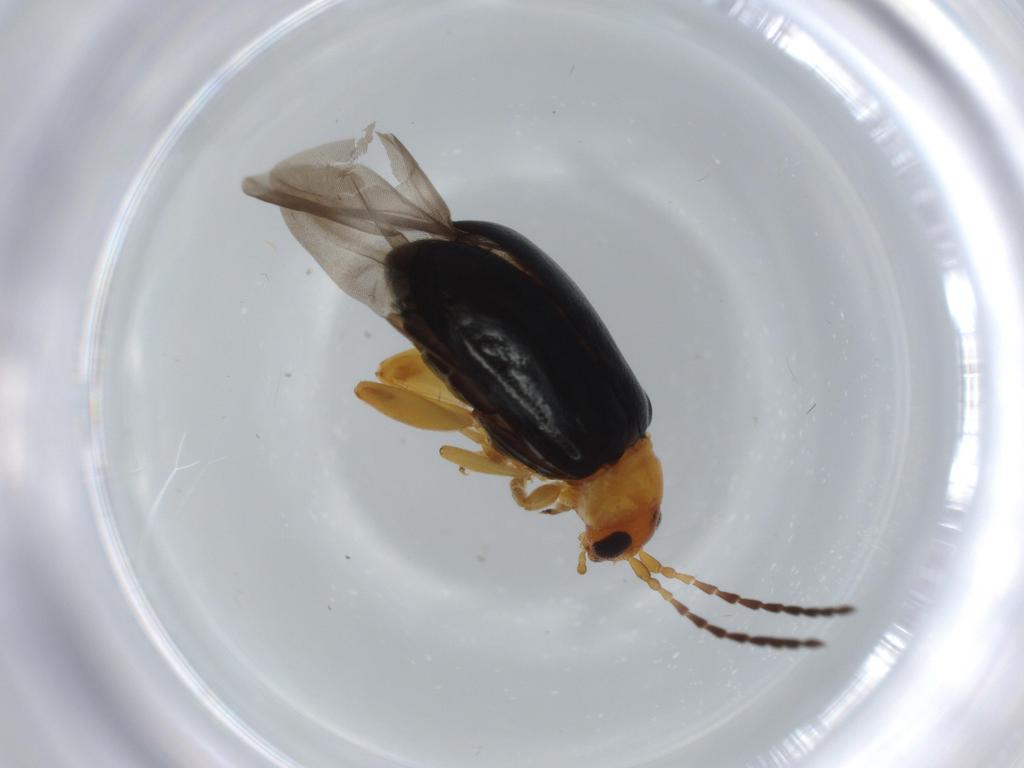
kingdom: Animalia
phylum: Arthropoda
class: Insecta
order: Coleoptera
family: Chrysomelidae
